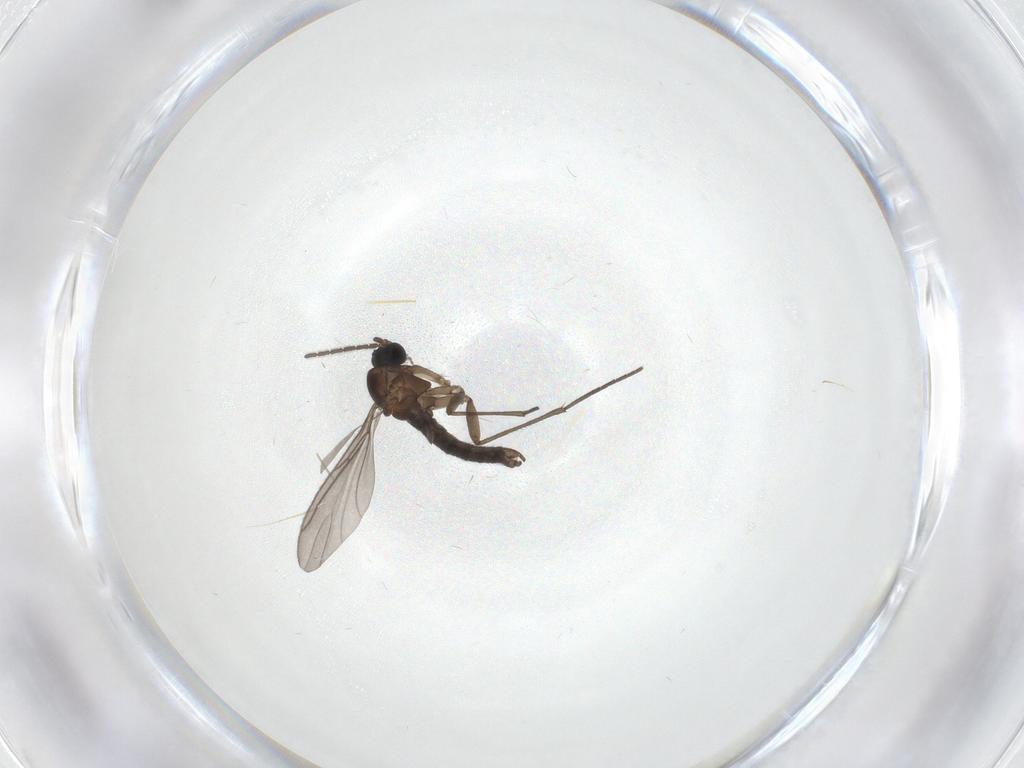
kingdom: Animalia
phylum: Arthropoda
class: Insecta
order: Diptera
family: Sciaridae
